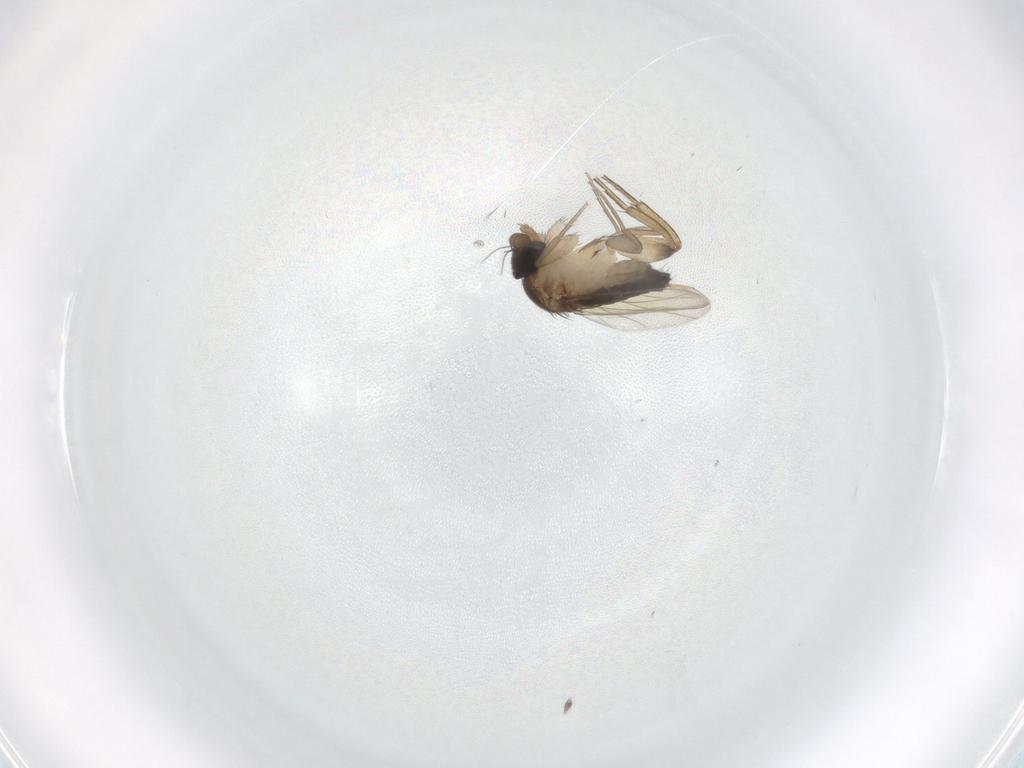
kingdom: Animalia
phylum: Arthropoda
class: Insecta
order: Diptera
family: Phoridae
